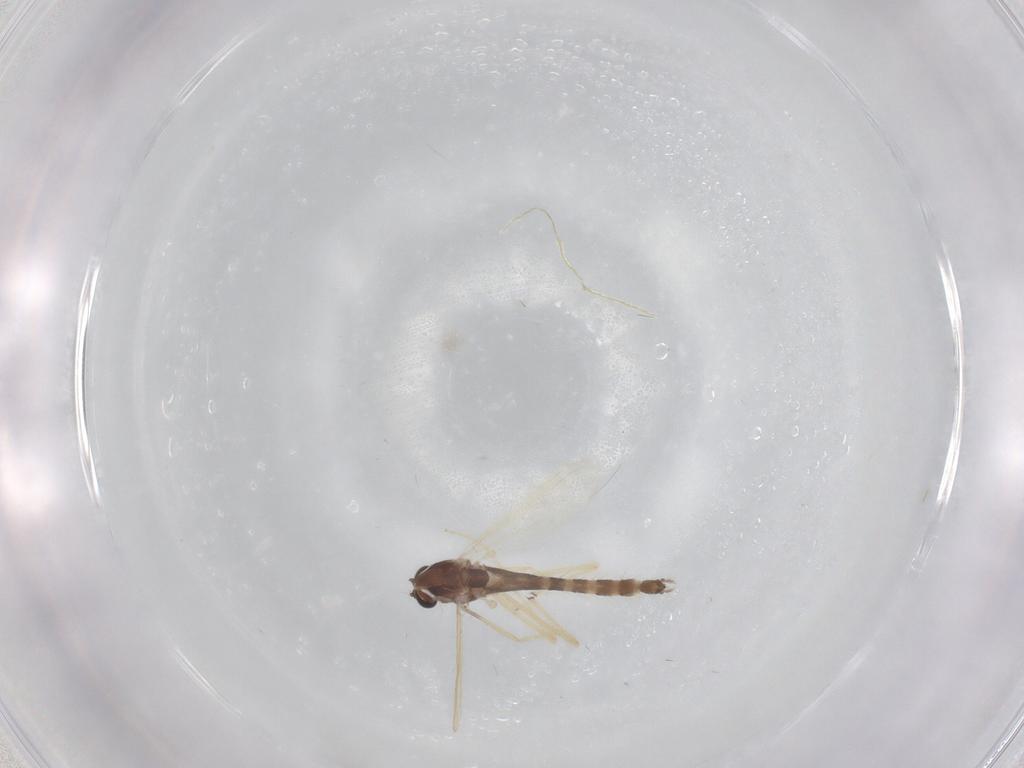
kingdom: Animalia
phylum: Arthropoda
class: Insecta
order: Diptera
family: Chironomidae
